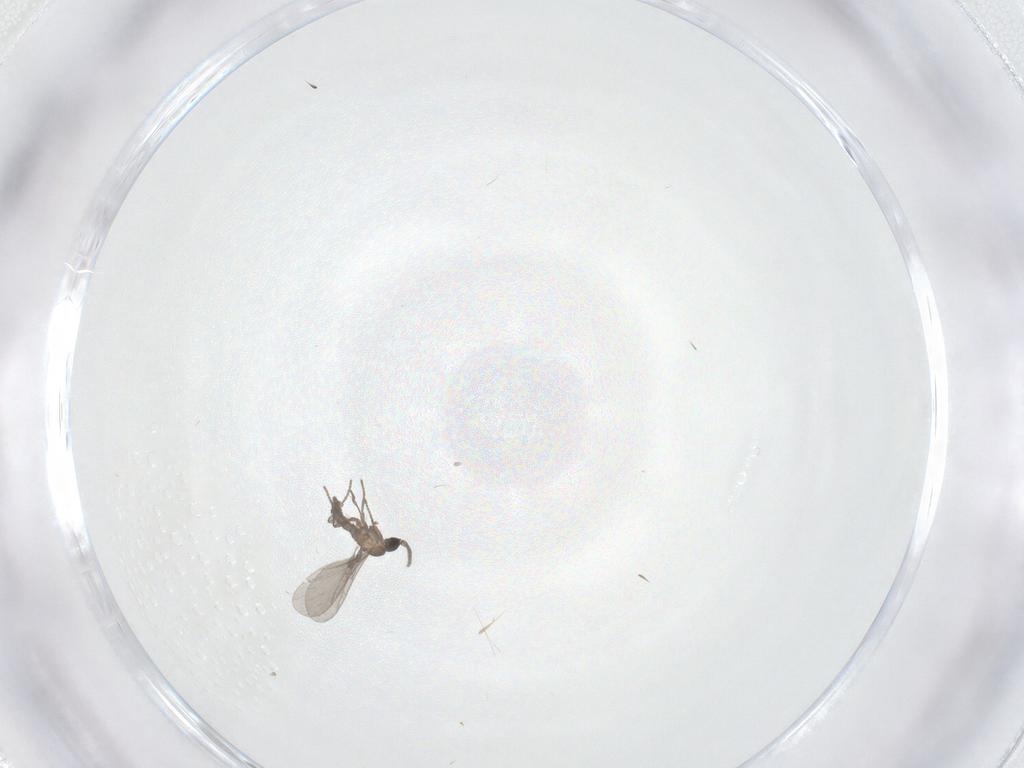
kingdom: Animalia
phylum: Arthropoda
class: Insecta
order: Diptera
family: Sciaridae
